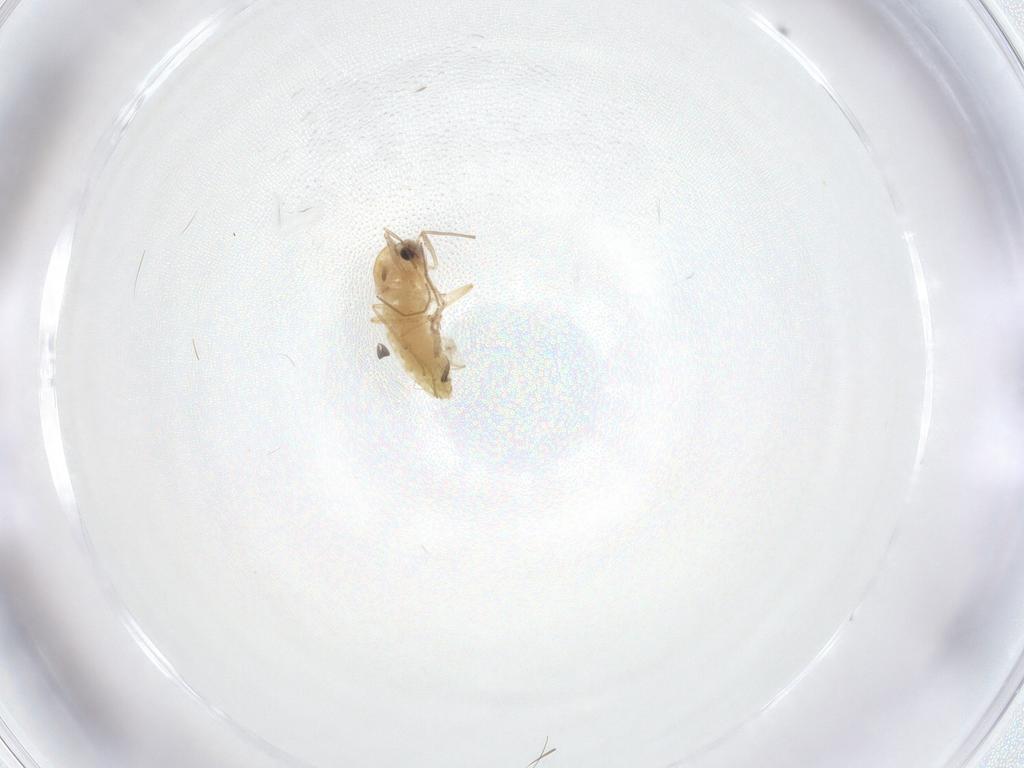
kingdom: Animalia
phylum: Arthropoda
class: Insecta
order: Diptera
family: Chironomidae
